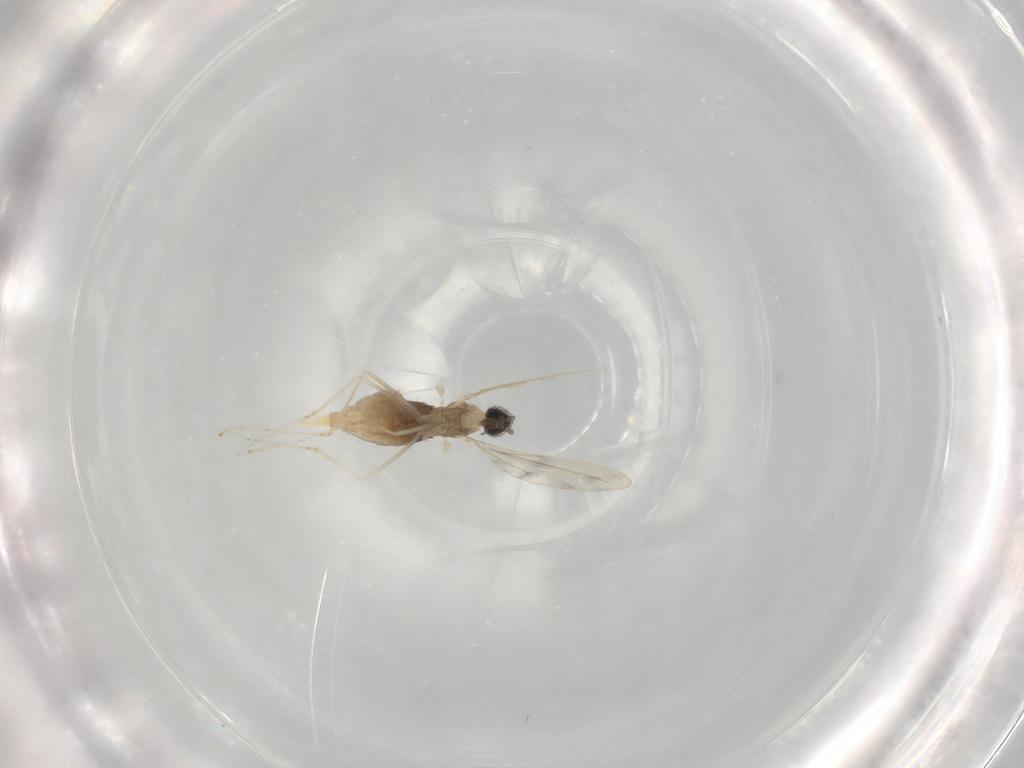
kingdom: Animalia
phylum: Arthropoda
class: Insecta
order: Diptera
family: Cecidomyiidae
